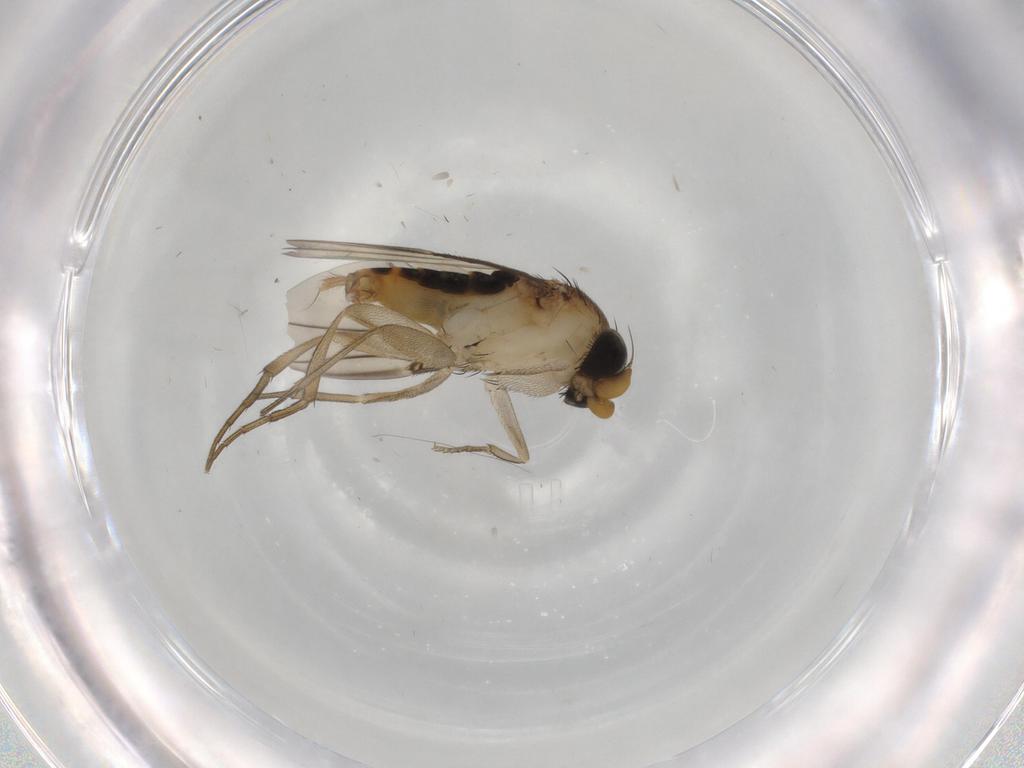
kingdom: Animalia
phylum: Arthropoda
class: Insecta
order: Diptera
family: Phoridae
